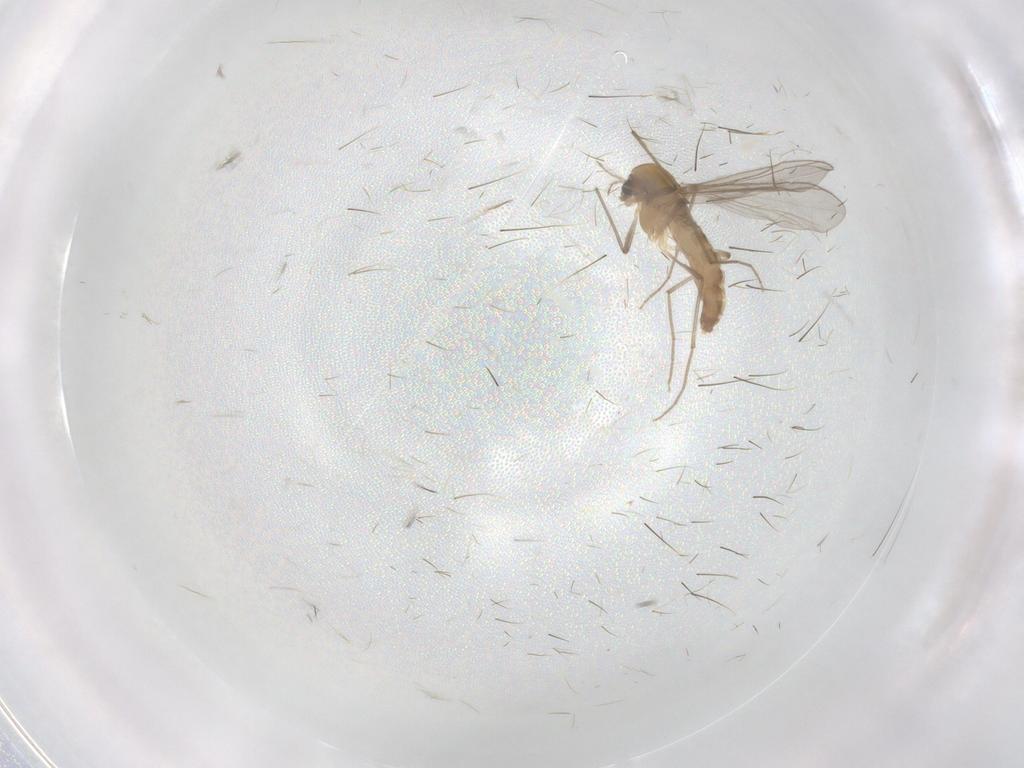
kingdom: Animalia
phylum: Arthropoda
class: Insecta
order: Diptera
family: Chironomidae
